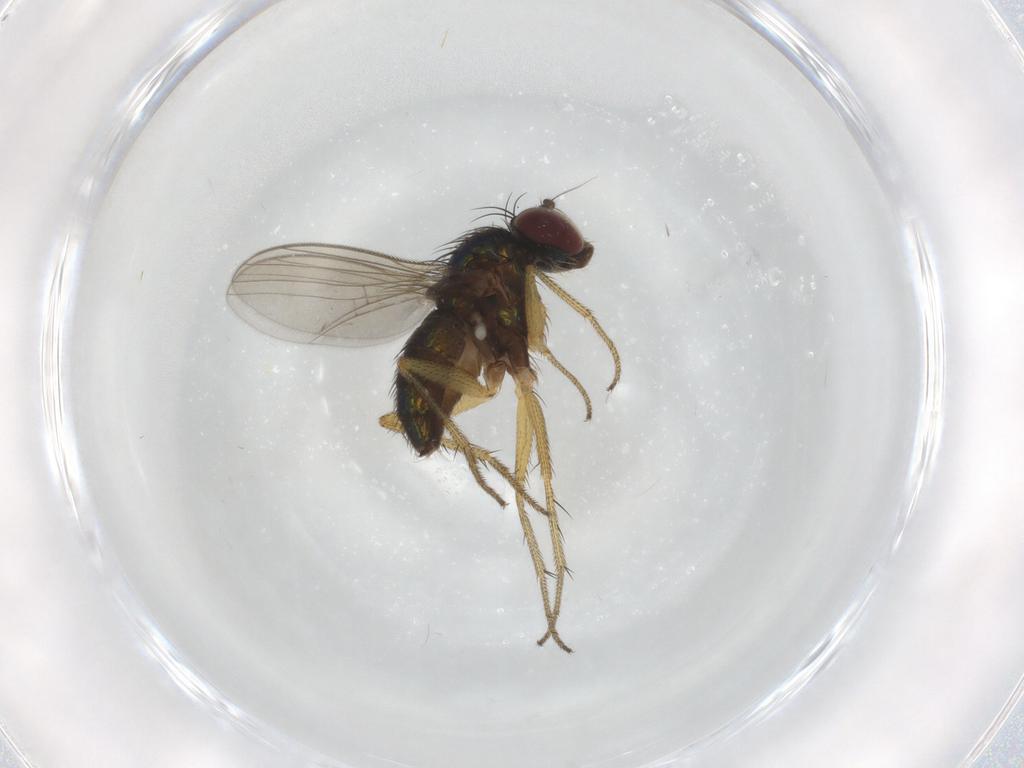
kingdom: Animalia
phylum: Arthropoda
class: Insecta
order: Diptera
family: Dolichopodidae
